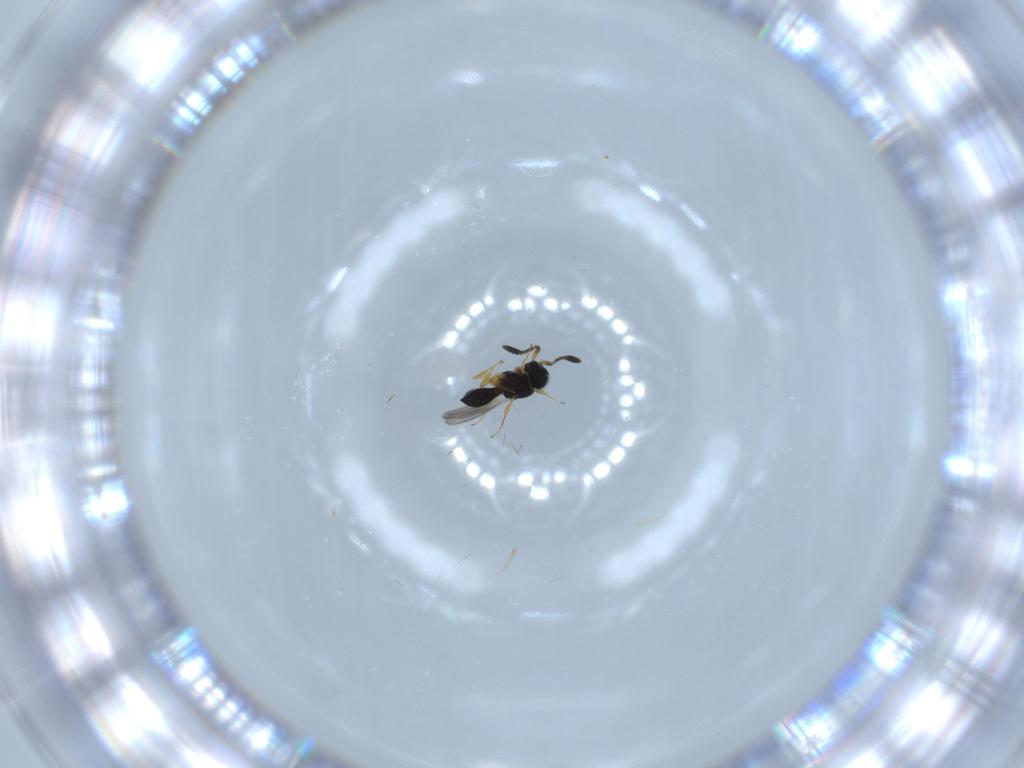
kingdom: Animalia
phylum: Arthropoda
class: Insecta
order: Hymenoptera
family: Scelionidae
